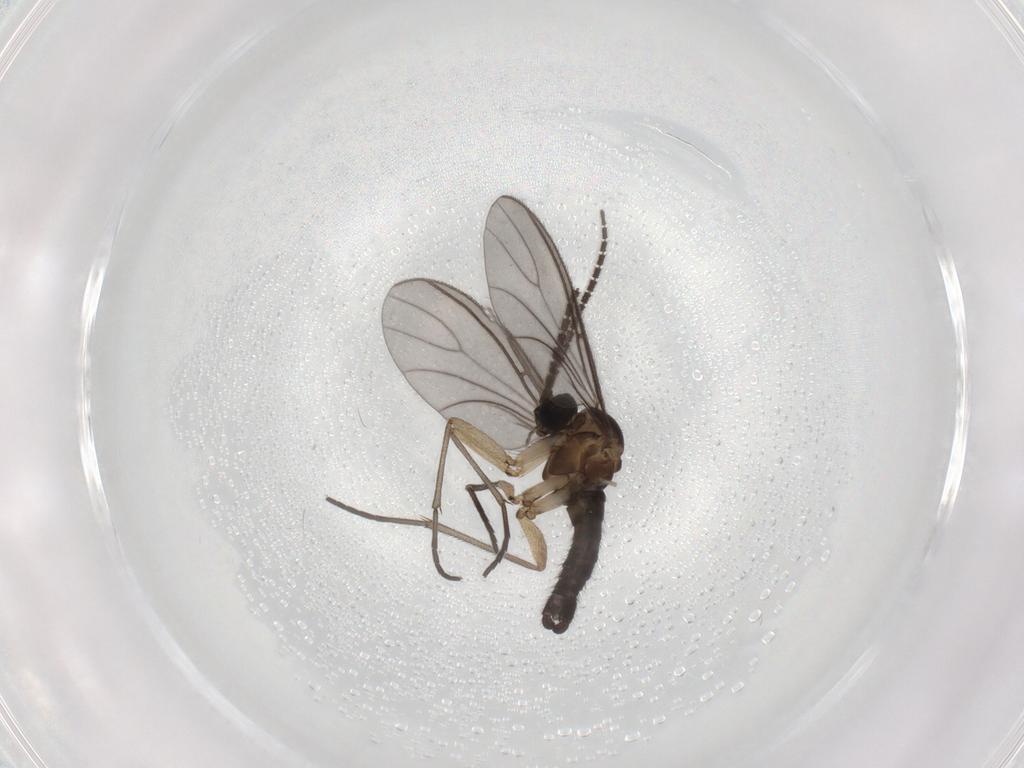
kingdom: Animalia
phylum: Arthropoda
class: Insecta
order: Diptera
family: Sciaridae
